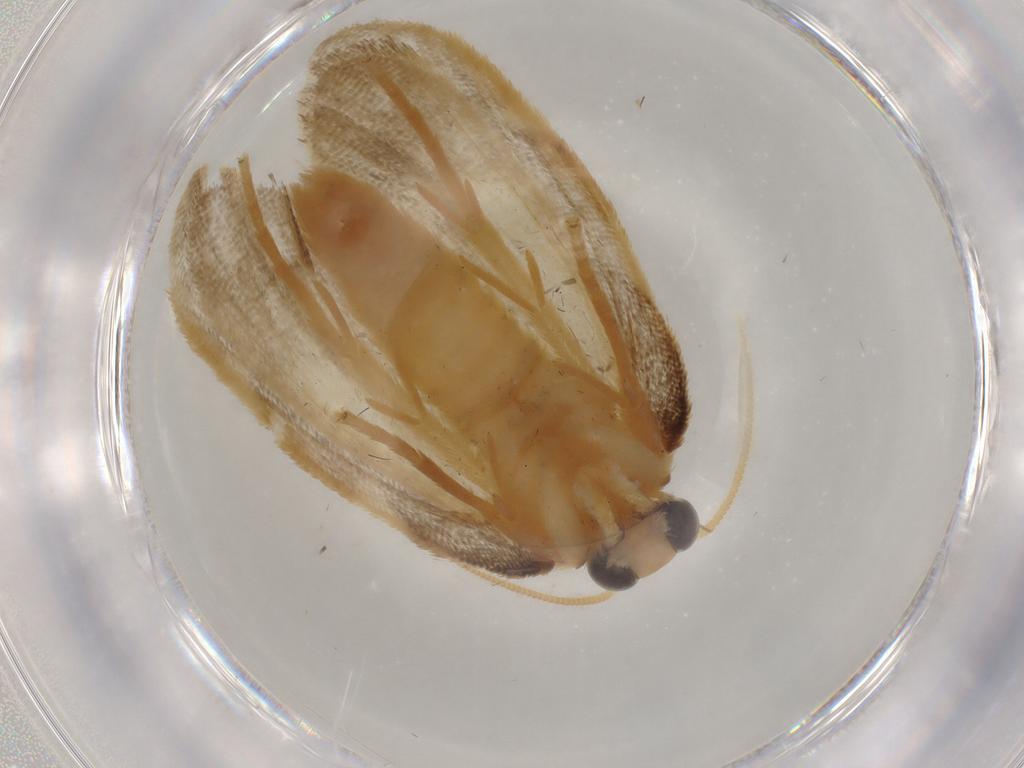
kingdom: Animalia
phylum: Arthropoda
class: Insecta
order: Lepidoptera
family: Psychidae
